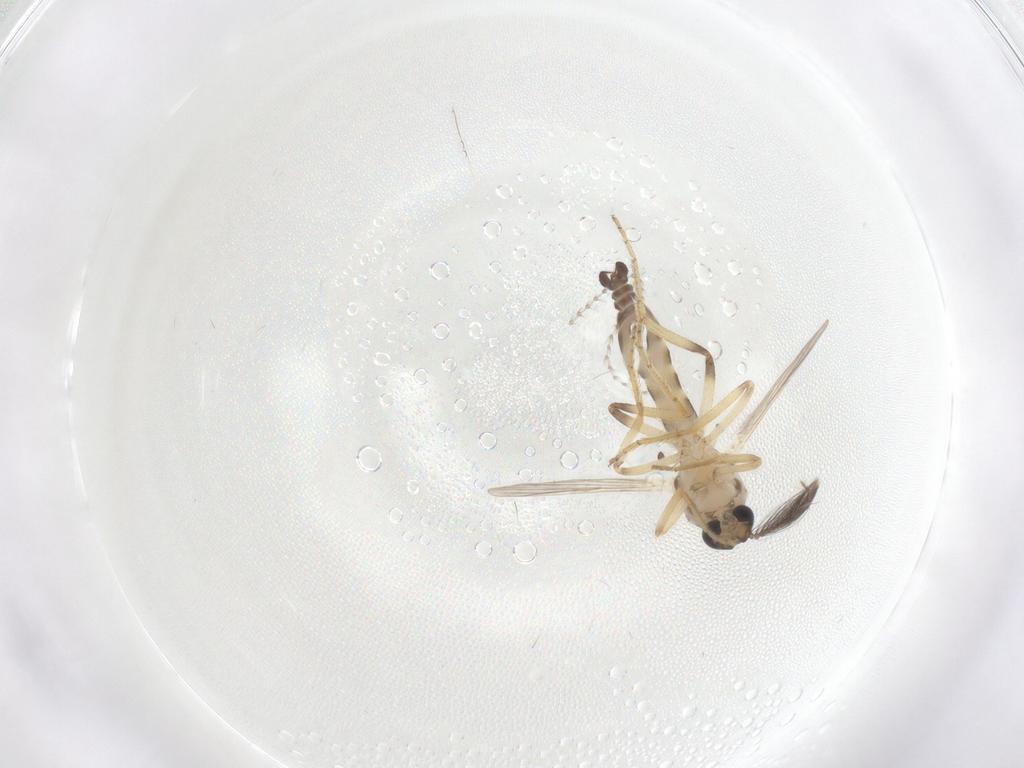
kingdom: Animalia
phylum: Arthropoda
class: Insecta
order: Diptera
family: Ceratopogonidae
